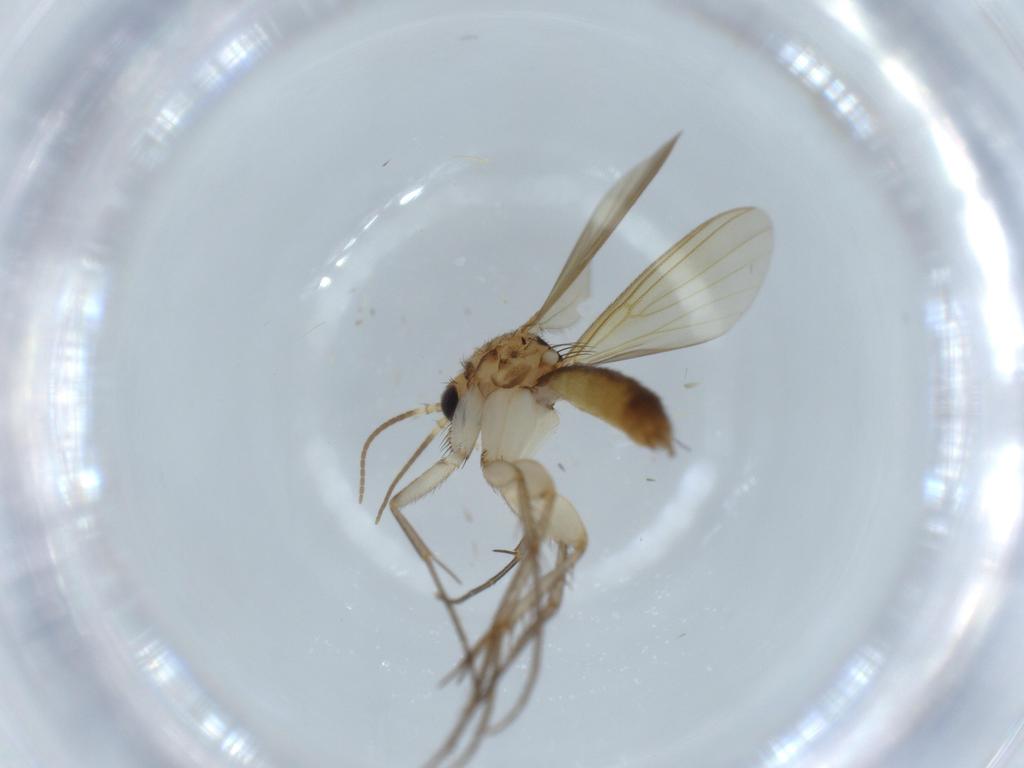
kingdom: Animalia
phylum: Arthropoda
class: Insecta
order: Diptera
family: Mycetophilidae
